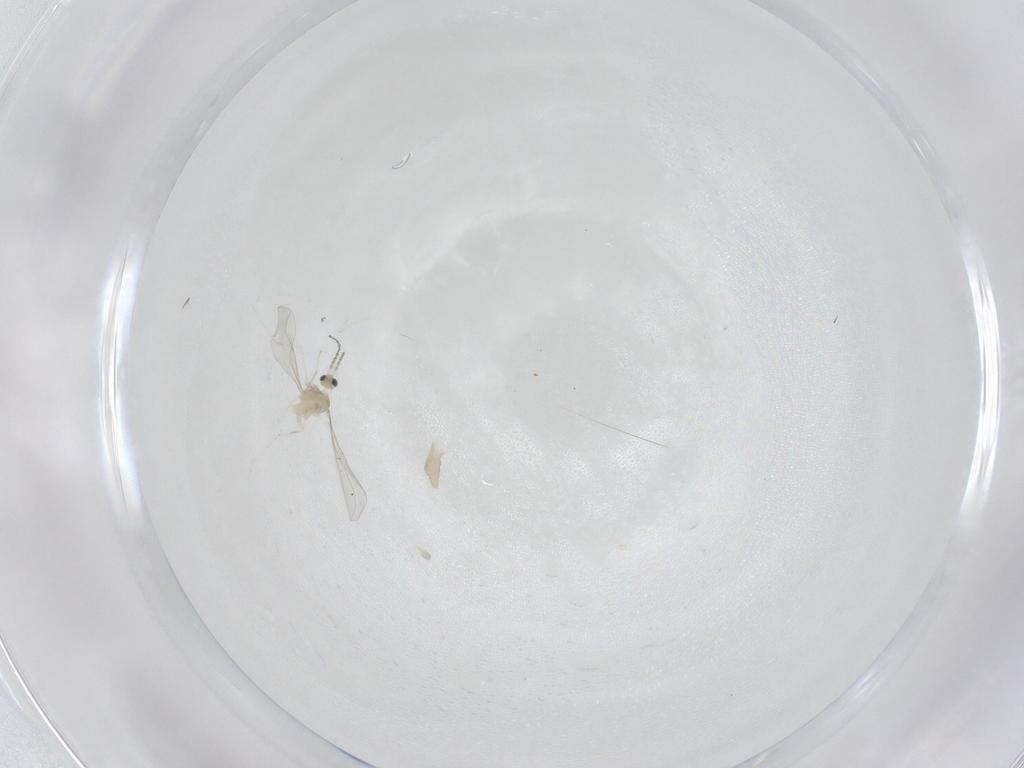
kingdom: Animalia
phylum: Arthropoda
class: Insecta
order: Diptera
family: Cecidomyiidae
